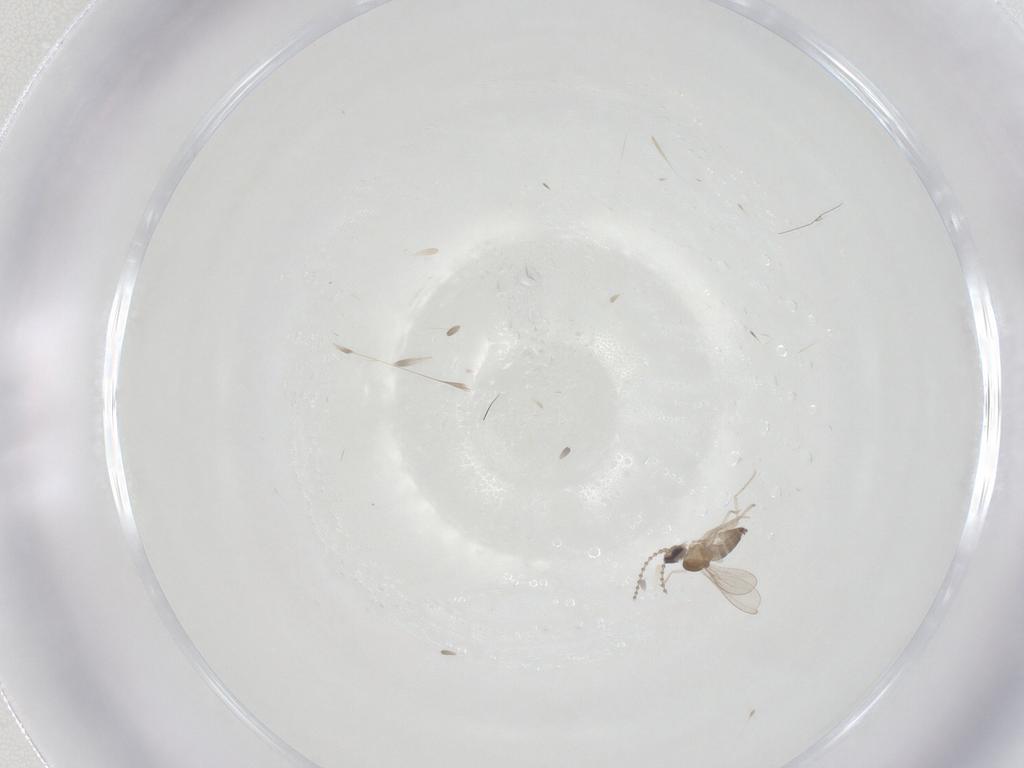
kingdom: Animalia
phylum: Arthropoda
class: Insecta
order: Diptera
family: Cecidomyiidae
